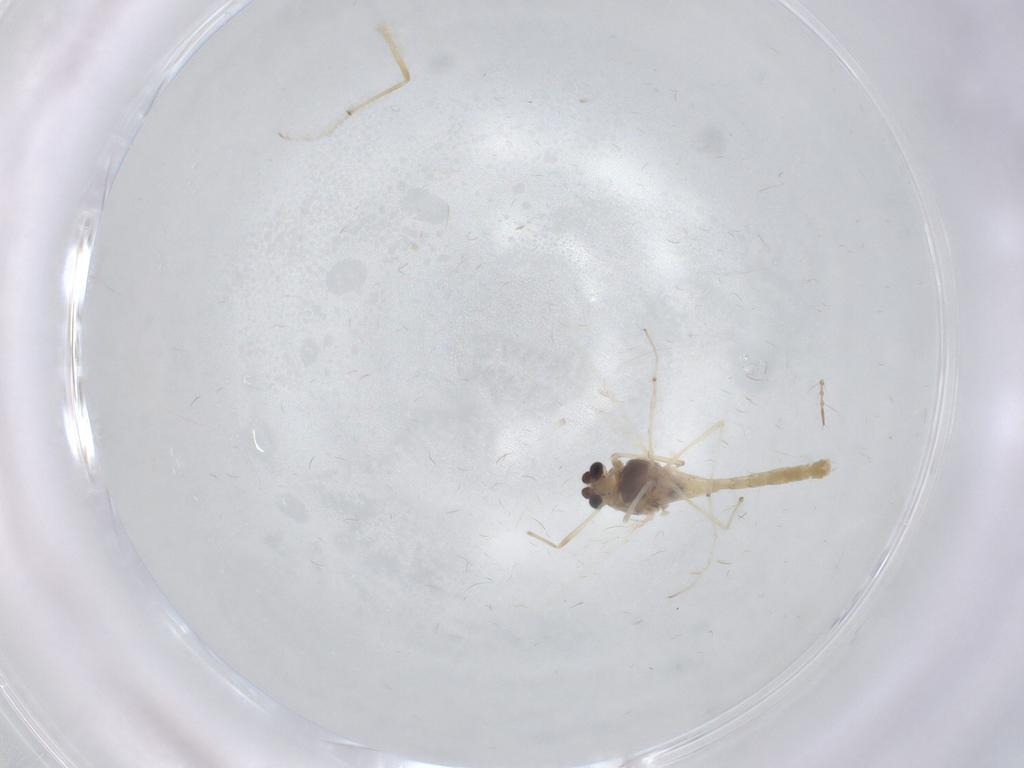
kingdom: Animalia
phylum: Arthropoda
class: Insecta
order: Diptera
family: Chironomidae
